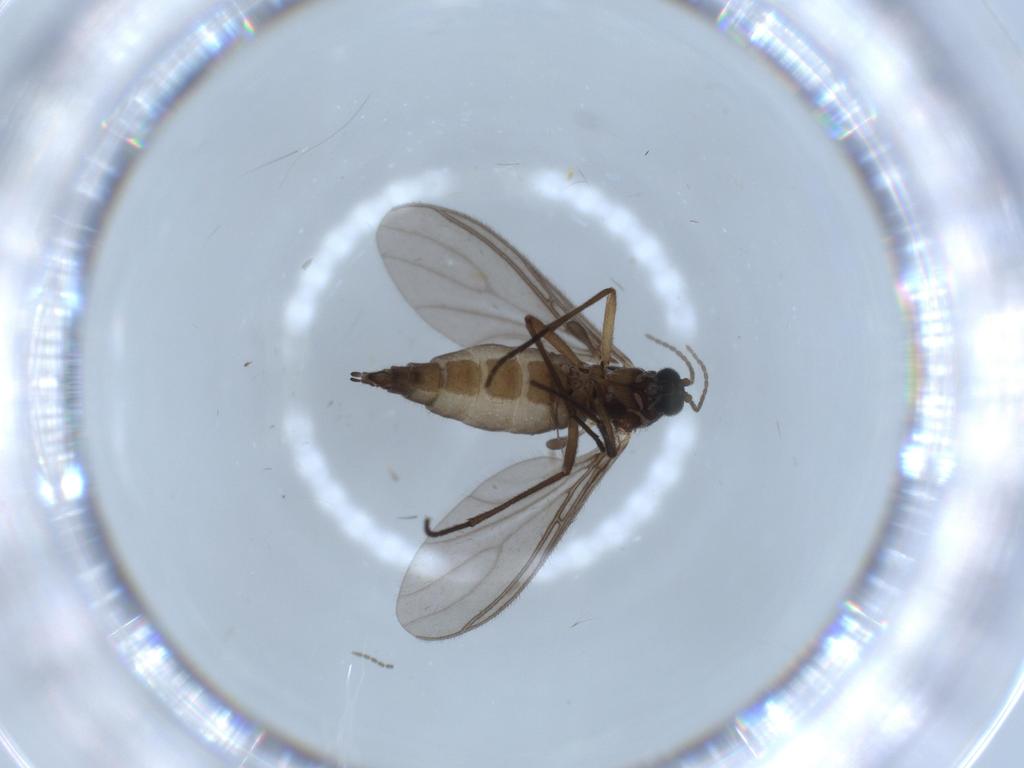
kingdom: Animalia
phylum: Arthropoda
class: Insecta
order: Diptera
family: Sciaridae
